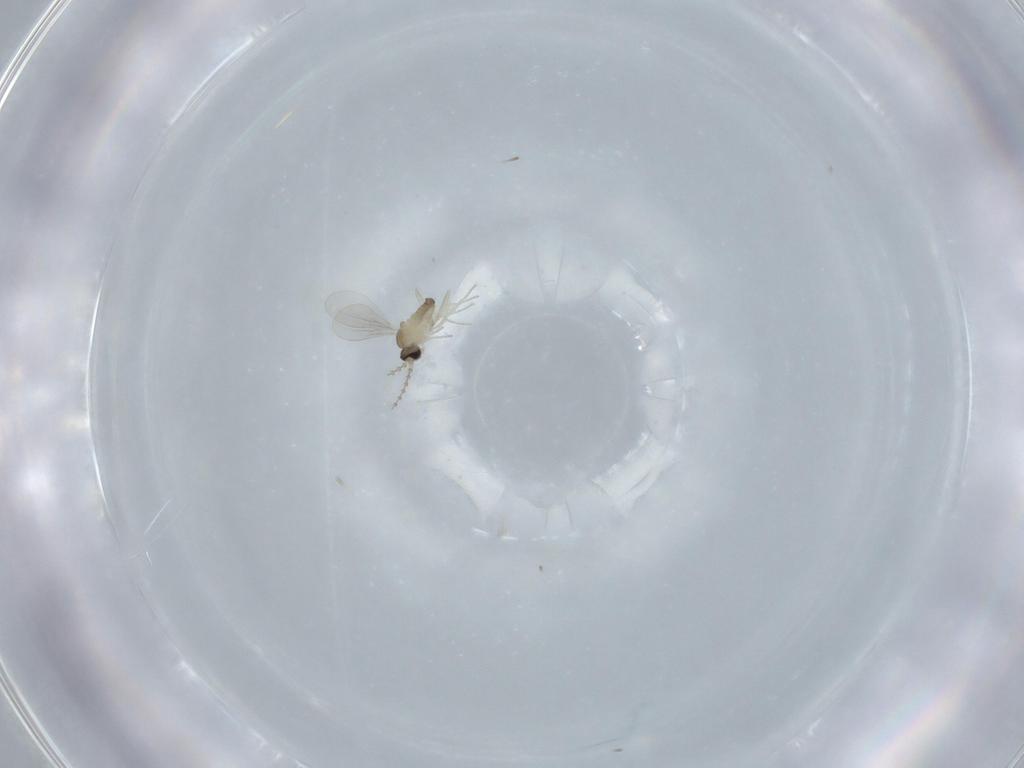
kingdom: Animalia
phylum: Arthropoda
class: Insecta
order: Diptera
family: Cecidomyiidae
